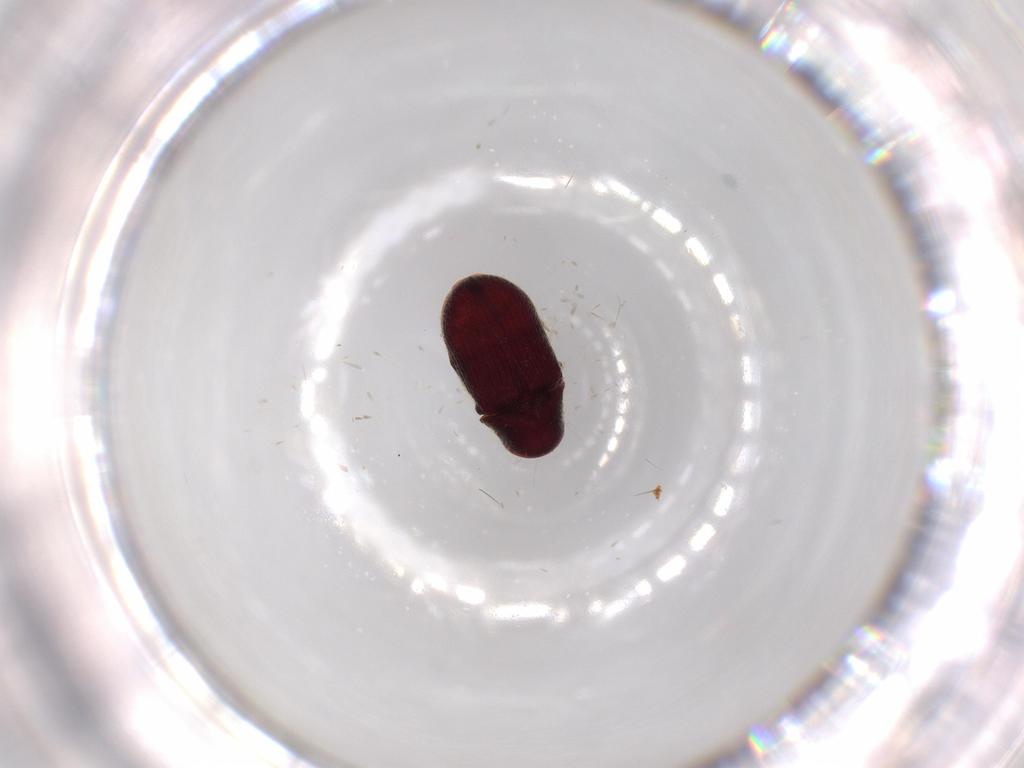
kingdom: Animalia
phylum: Arthropoda
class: Insecta
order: Coleoptera
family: Ptinidae
